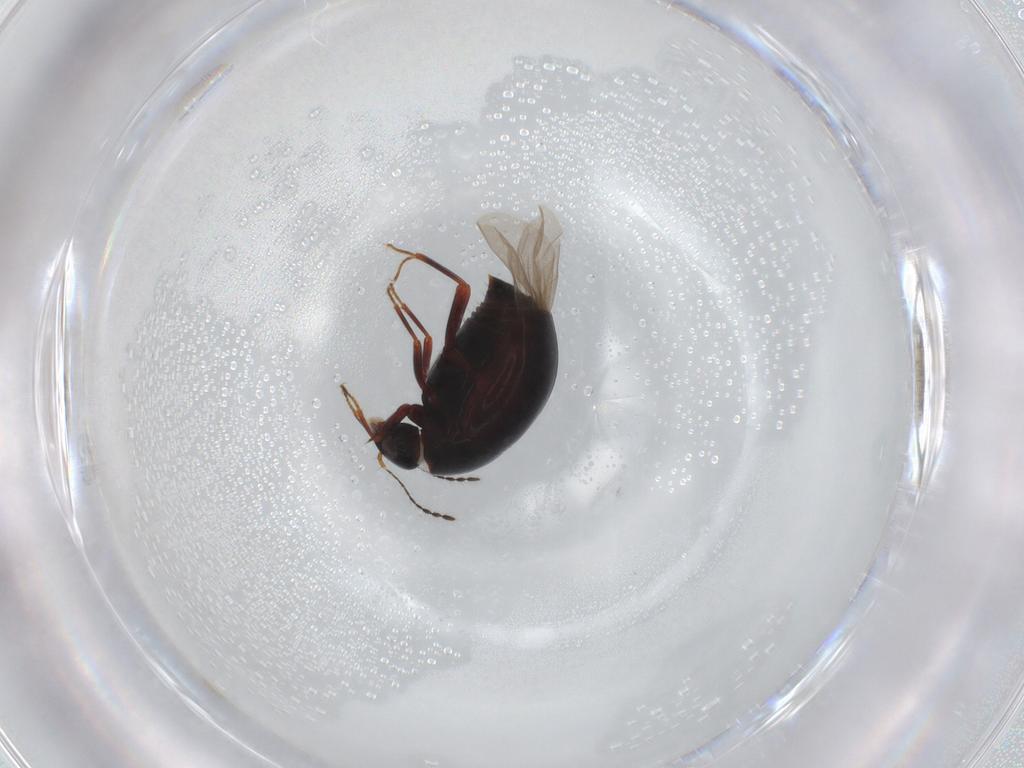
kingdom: Animalia
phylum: Arthropoda
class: Insecta
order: Coleoptera
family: Staphylinidae
